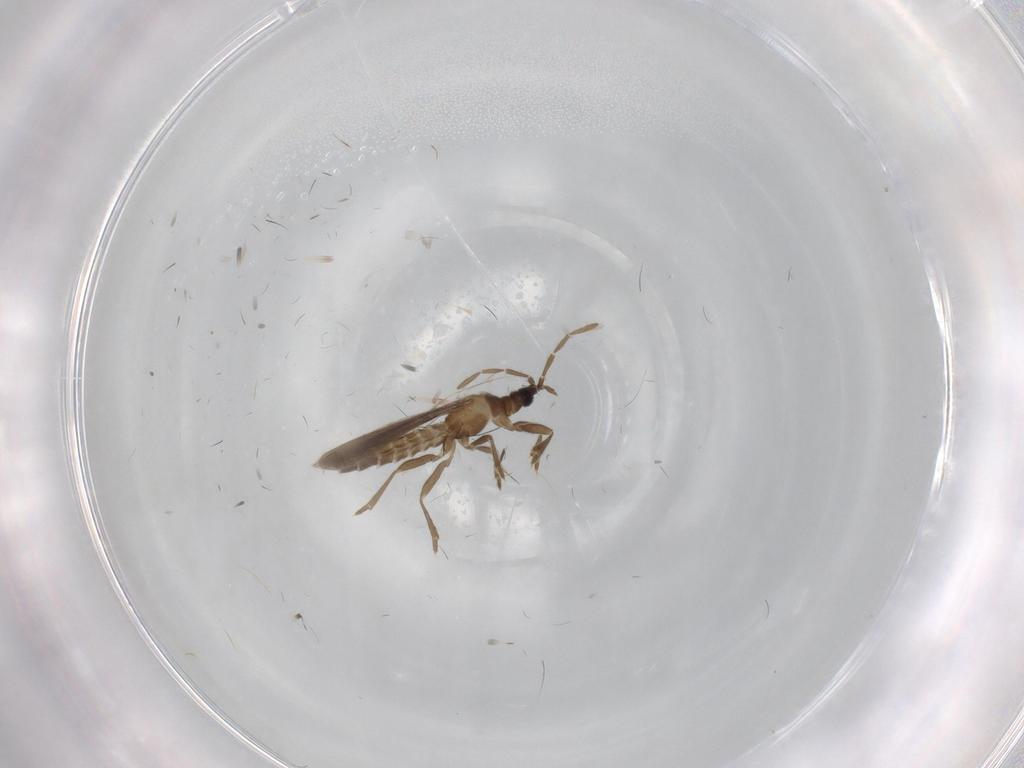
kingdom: Animalia
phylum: Arthropoda
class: Insecta
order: Hemiptera
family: Enicocephalidae
